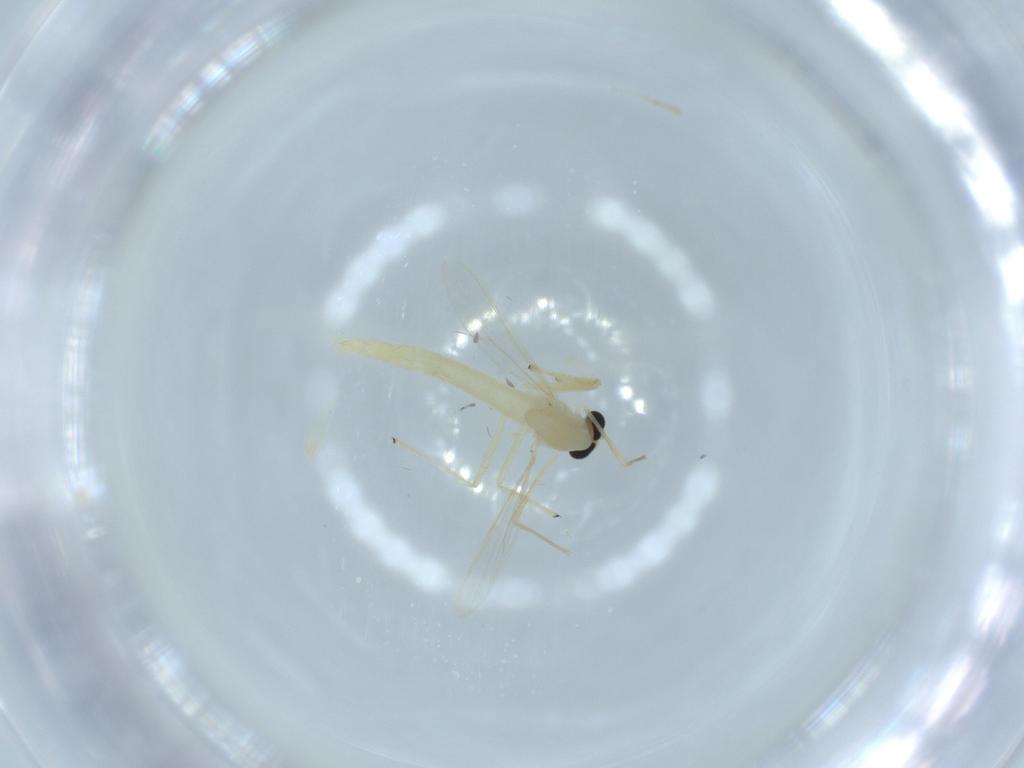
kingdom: Animalia
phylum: Arthropoda
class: Insecta
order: Diptera
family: Chironomidae
